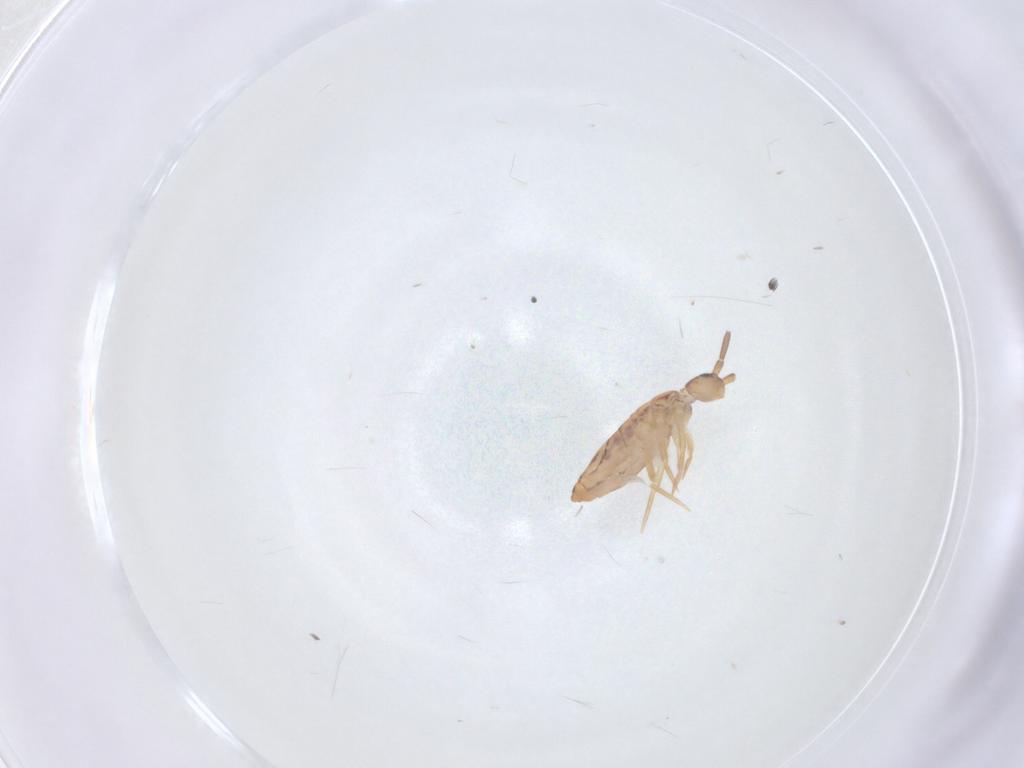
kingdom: Animalia
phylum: Arthropoda
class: Collembola
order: Entomobryomorpha
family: Entomobryidae
